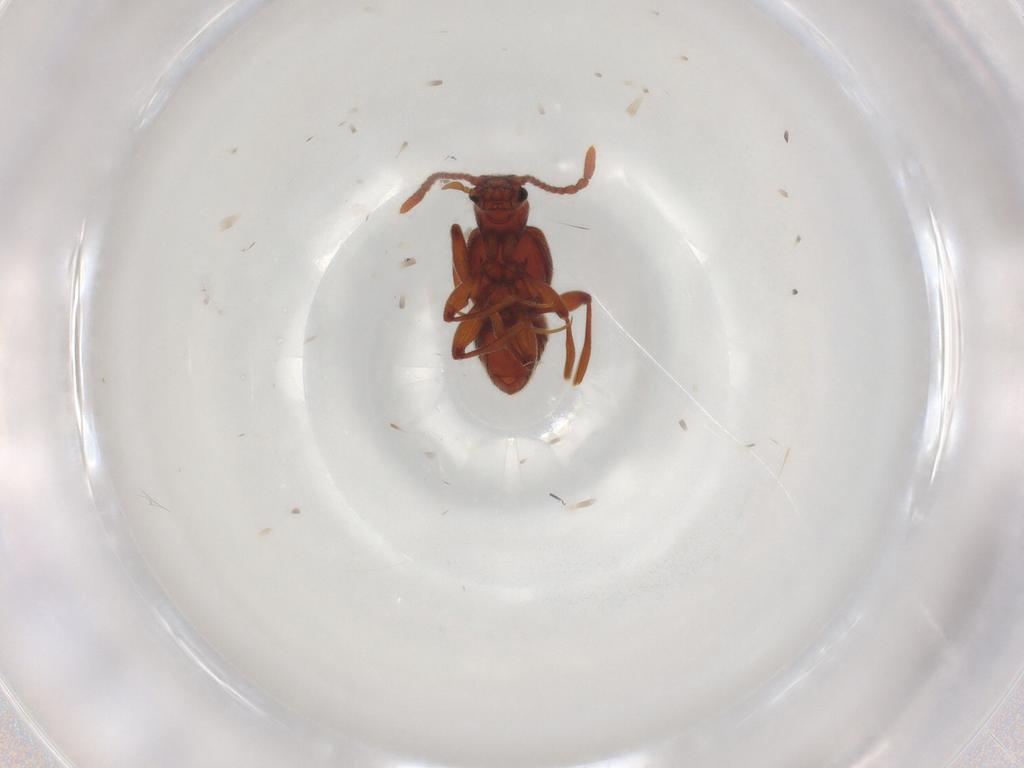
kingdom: Animalia
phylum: Arthropoda
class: Insecta
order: Coleoptera
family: Staphylinidae
